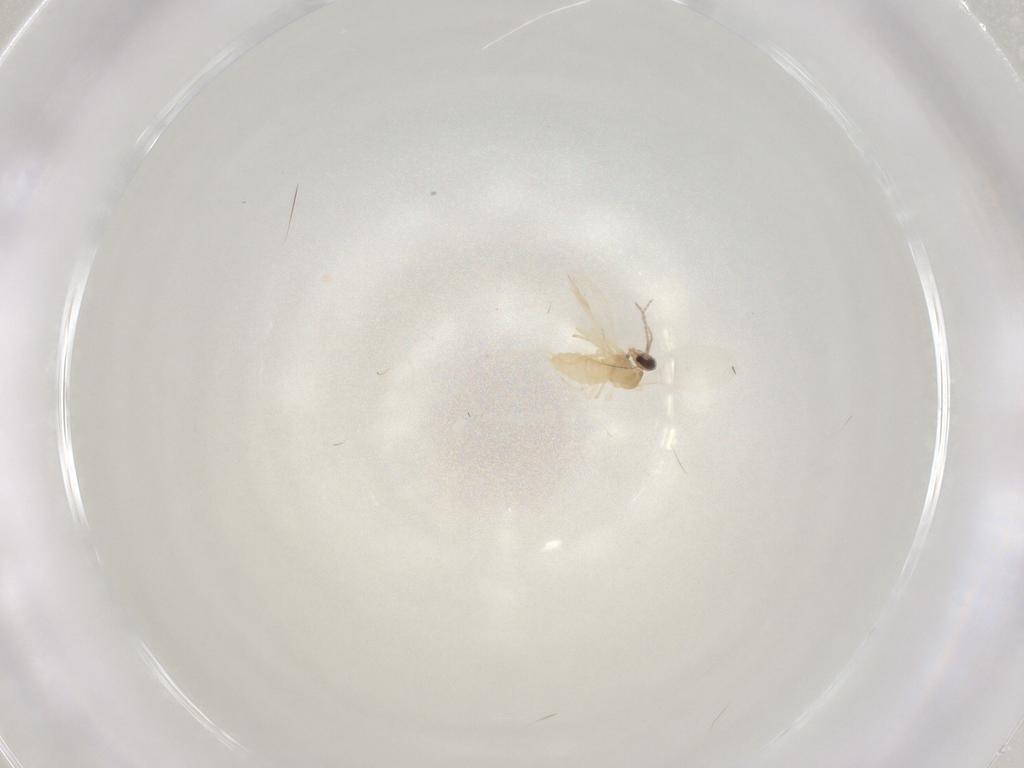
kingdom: Animalia
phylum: Arthropoda
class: Insecta
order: Diptera
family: Cecidomyiidae
